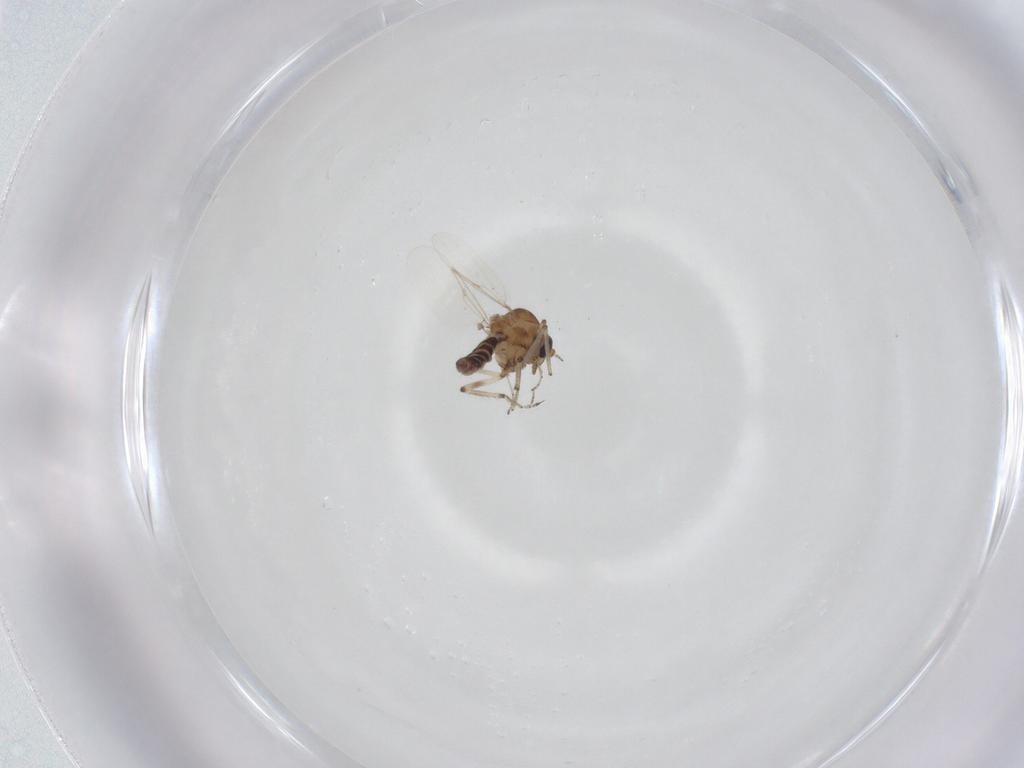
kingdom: Animalia
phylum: Arthropoda
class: Insecta
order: Diptera
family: Ceratopogonidae
